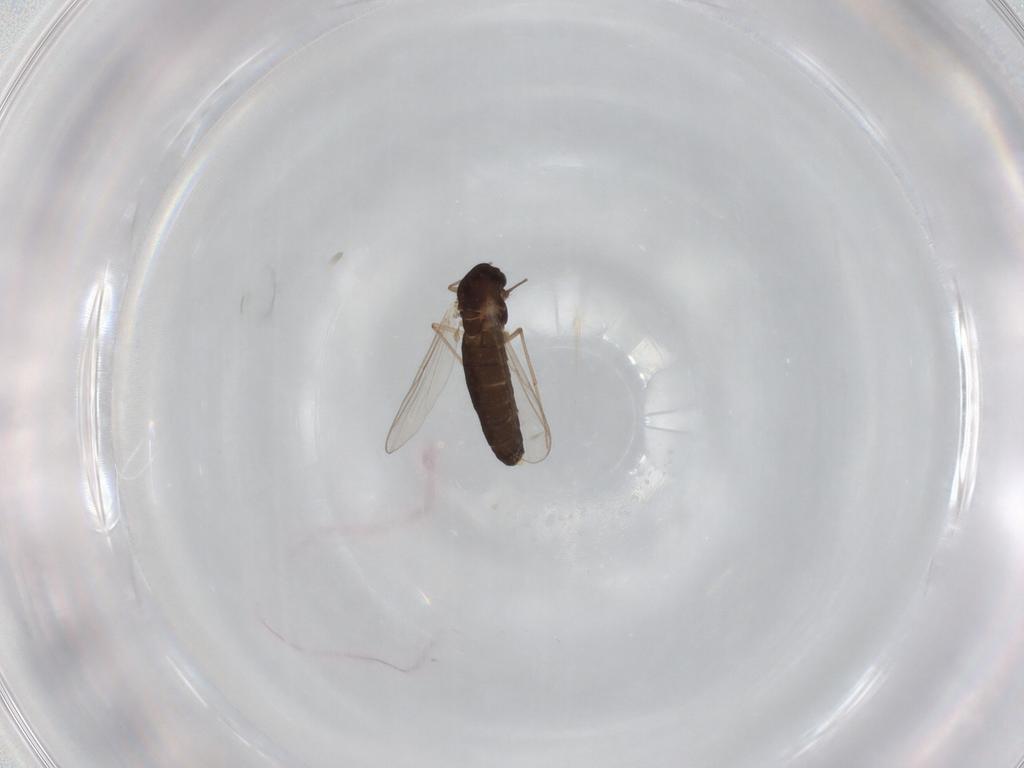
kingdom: Animalia
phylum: Arthropoda
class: Insecta
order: Diptera
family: Chironomidae
